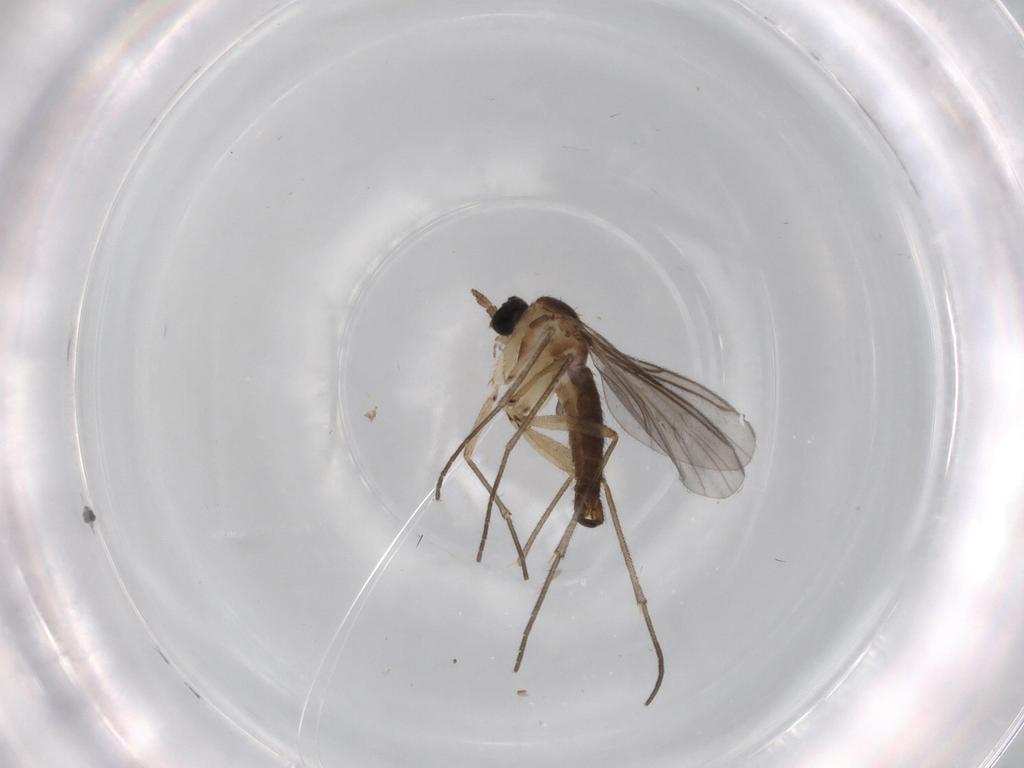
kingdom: Animalia
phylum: Arthropoda
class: Insecta
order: Diptera
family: Sciaridae
